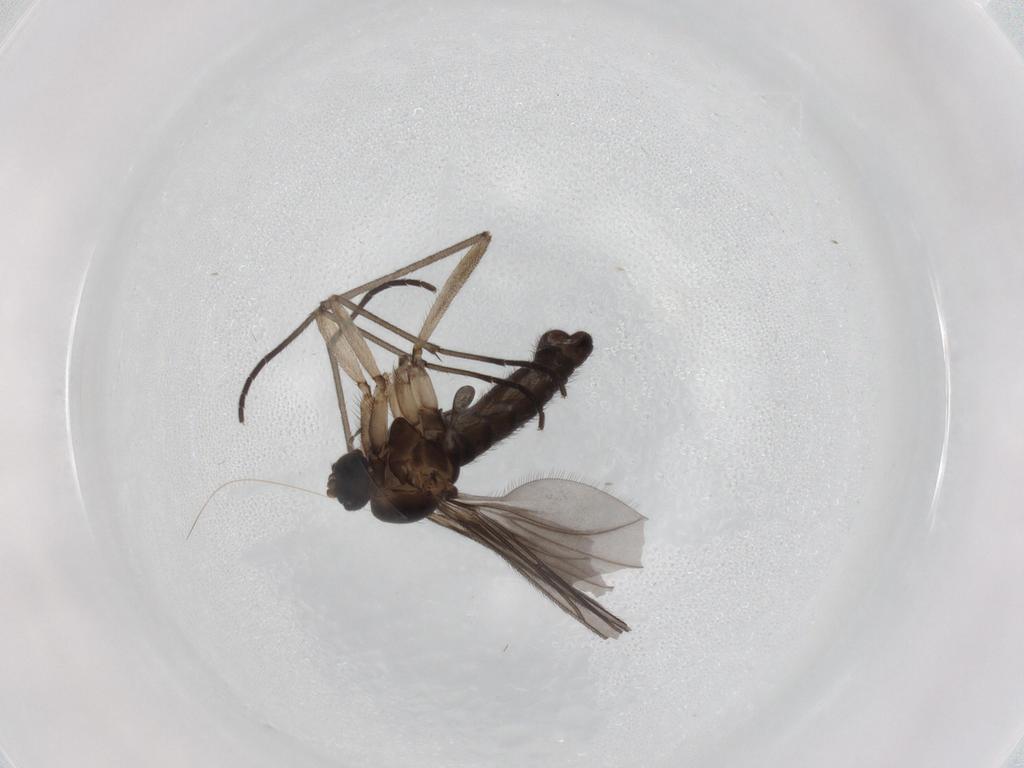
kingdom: Animalia
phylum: Arthropoda
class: Insecta
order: Diptera
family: Sciaridae
